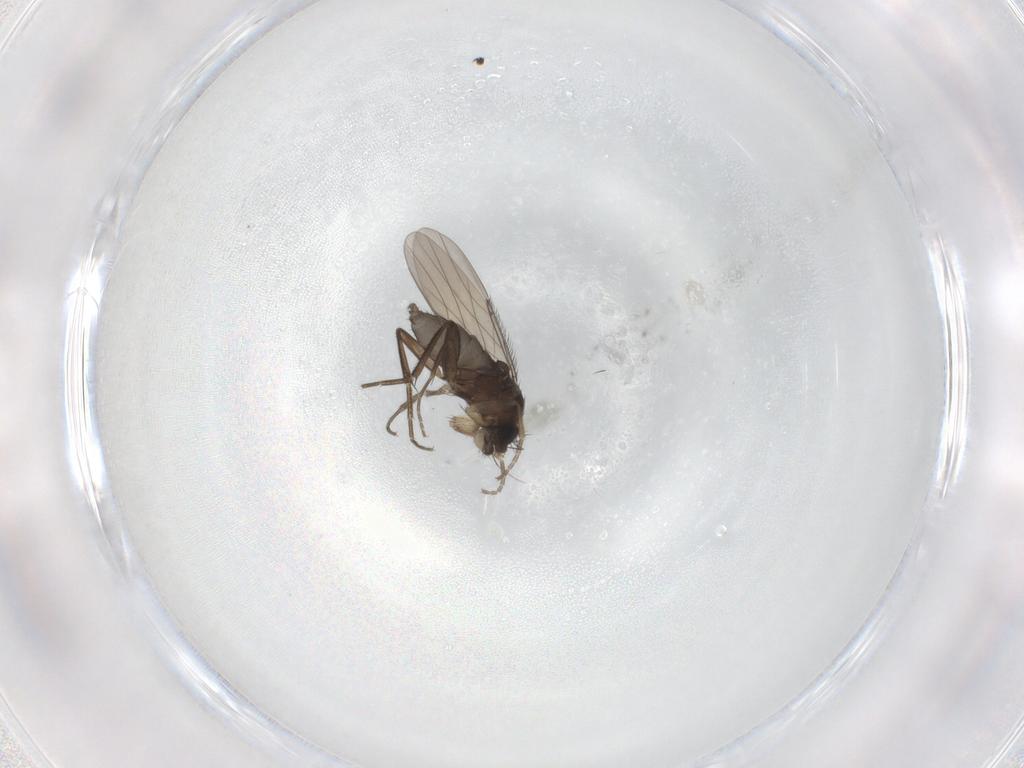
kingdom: Animalia
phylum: Arthropoda
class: Insecta
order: Diptera
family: Phoridae
